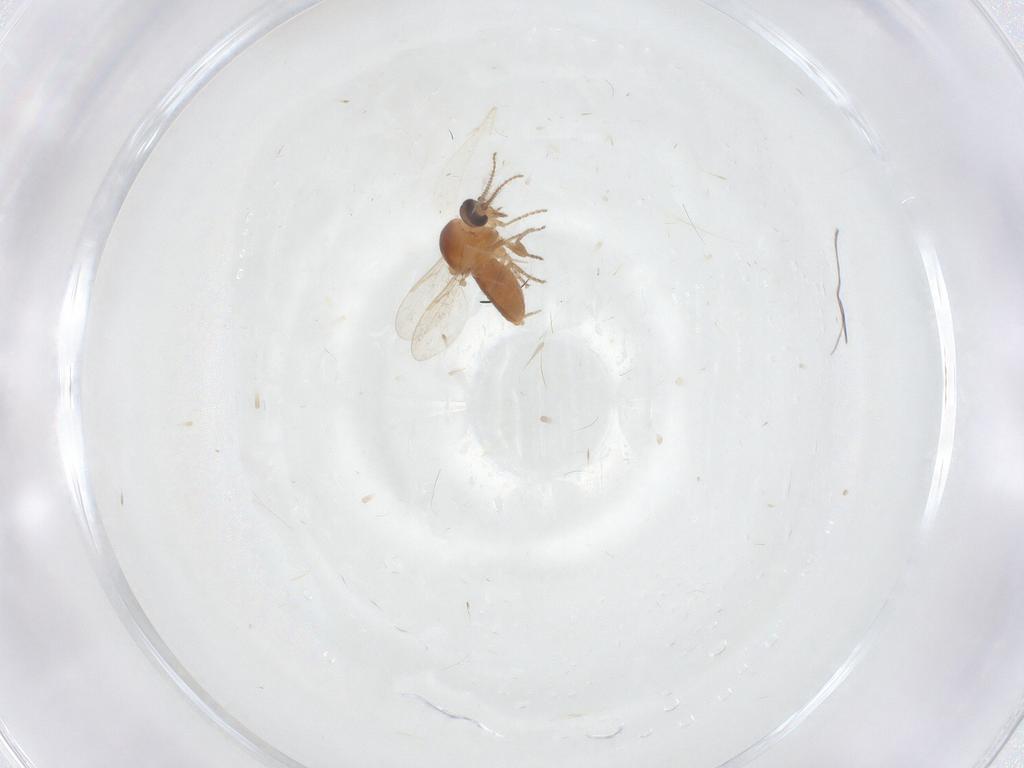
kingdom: Animalia
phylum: Arthropoda
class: Insecta
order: Diptera
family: Ceratopogonidae
